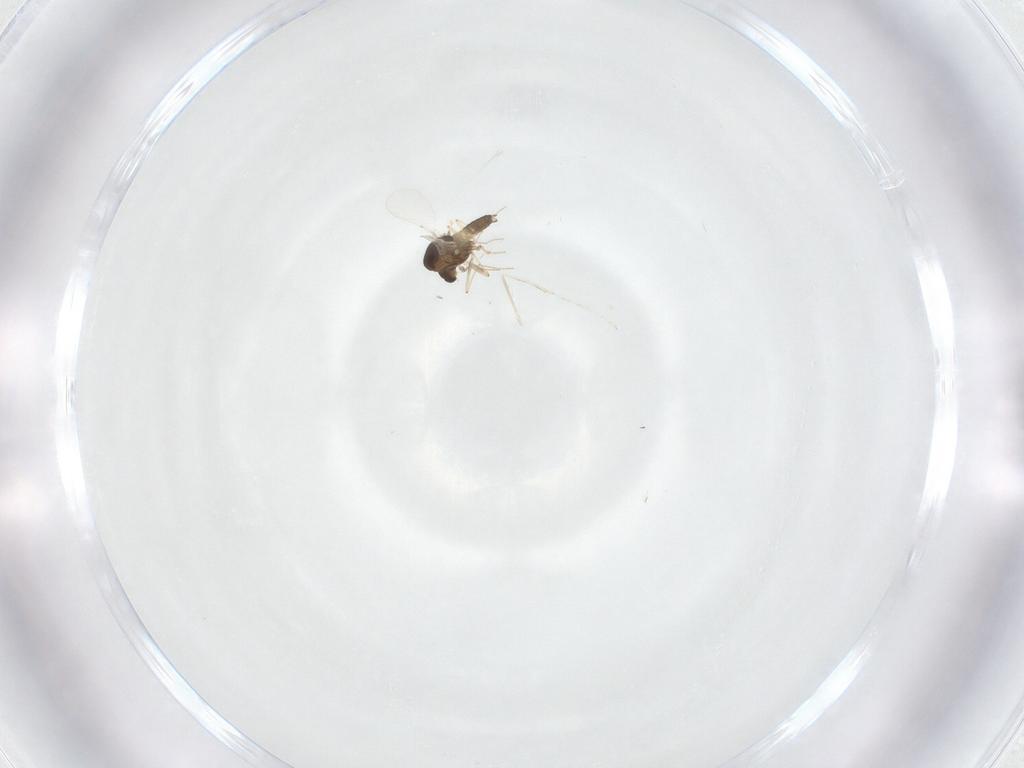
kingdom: Animalia
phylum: Arthropoda
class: Insecta
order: Diptera
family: Chironomidae
